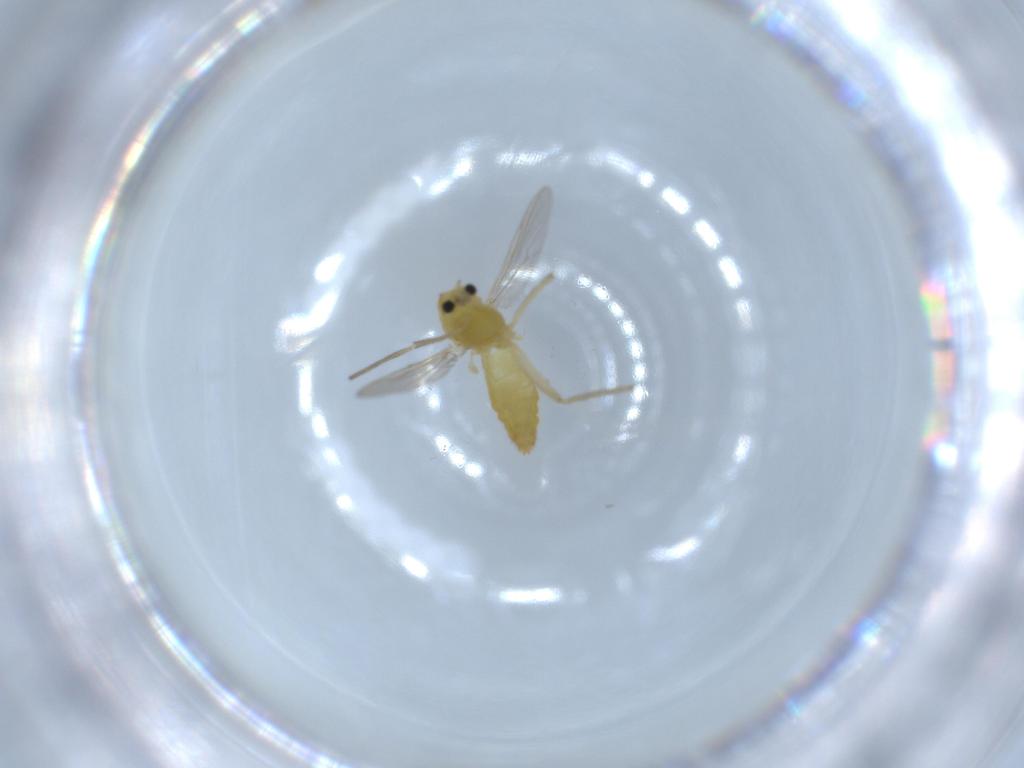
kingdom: Animalia
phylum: Arthropoda
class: Insecta
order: Diptera
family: Chironomidae
